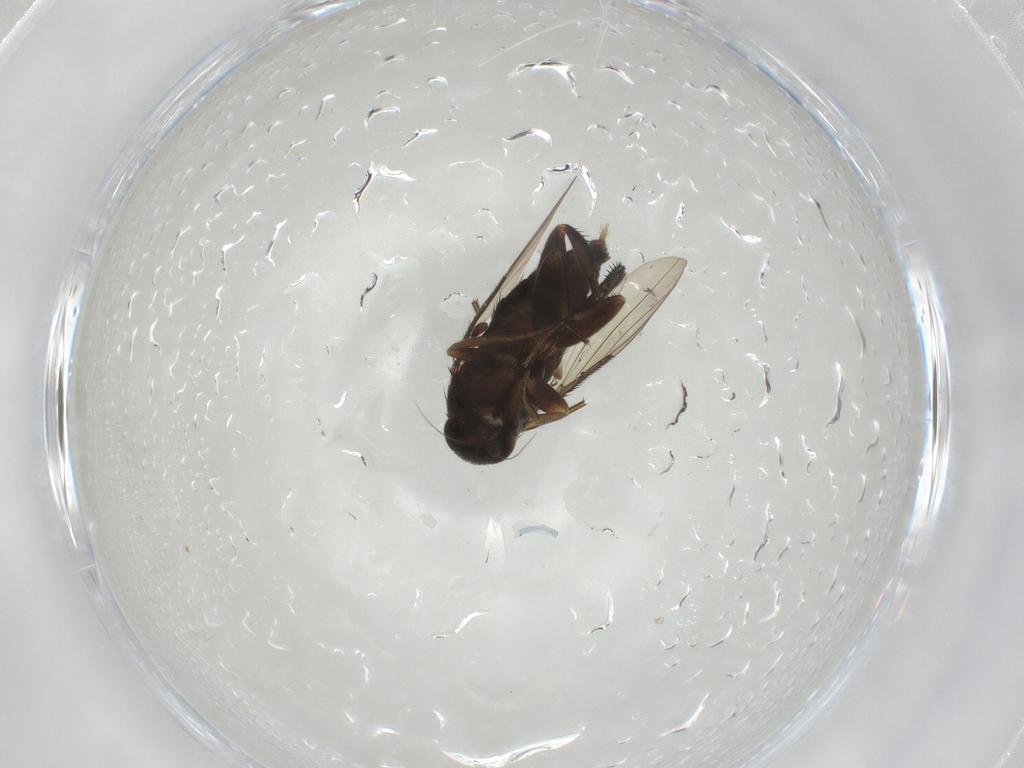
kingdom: Animalia
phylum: Arthropoda
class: Insecta
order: Diptera
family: Phoridae
